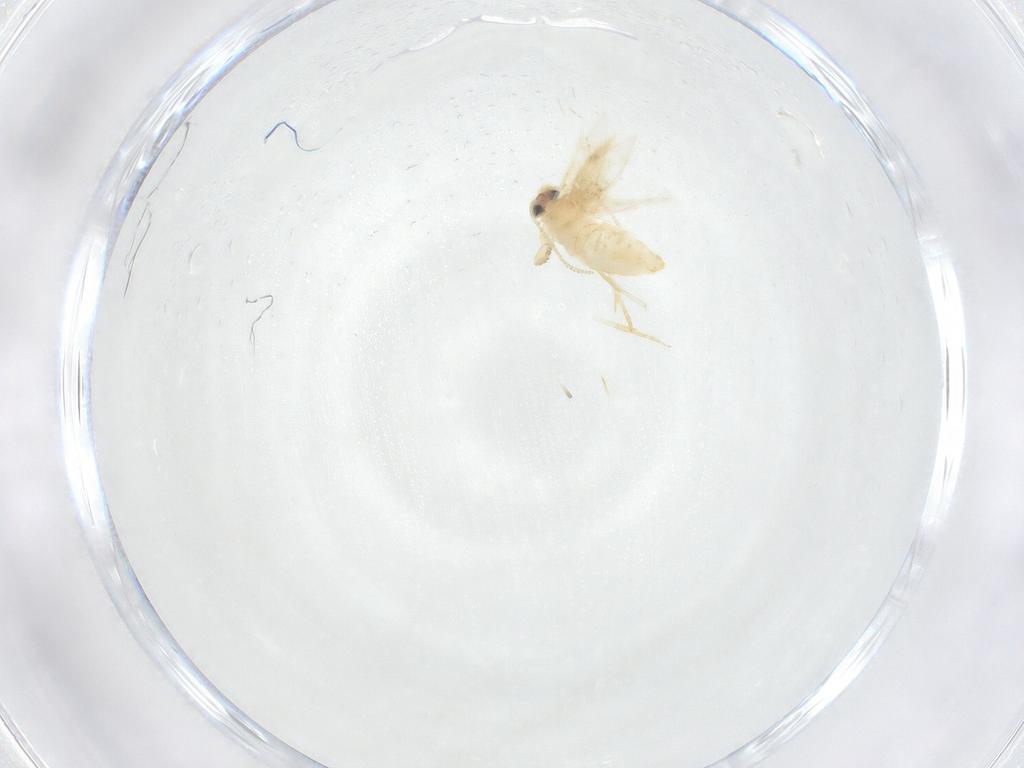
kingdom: Animalia
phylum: Arthropoda
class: Insecta
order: Lepidoptera
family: Nepticulidae
